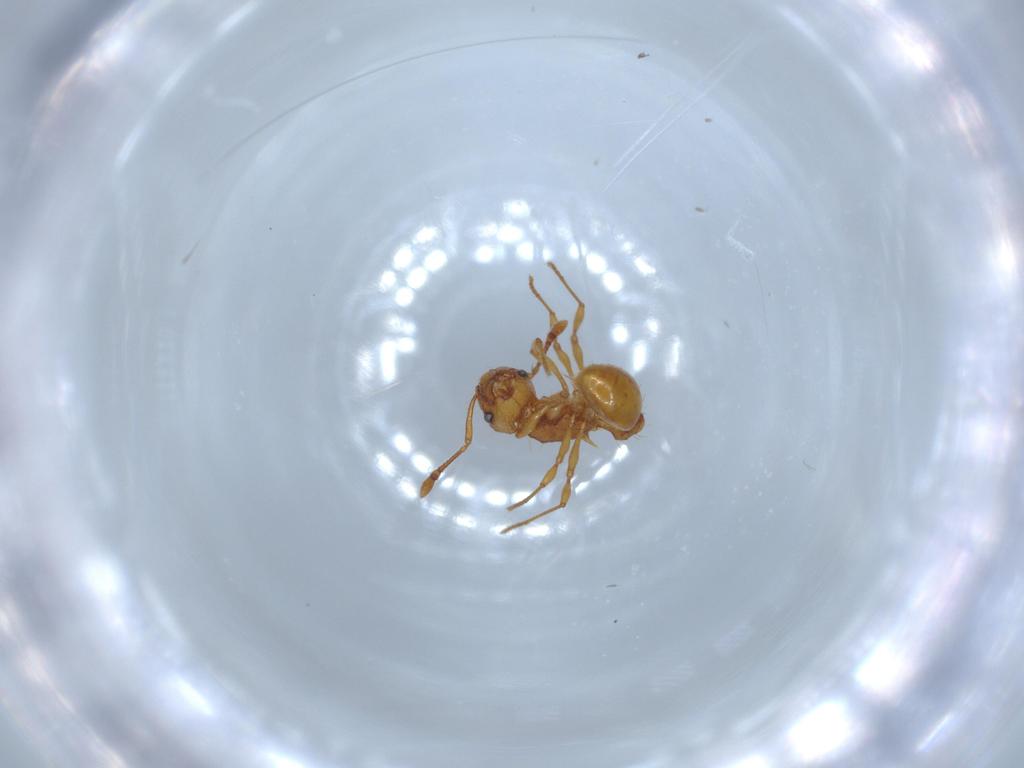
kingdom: Animalia
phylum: Arthropoda
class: Insecta
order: Hymenoptera
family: Formicidae
